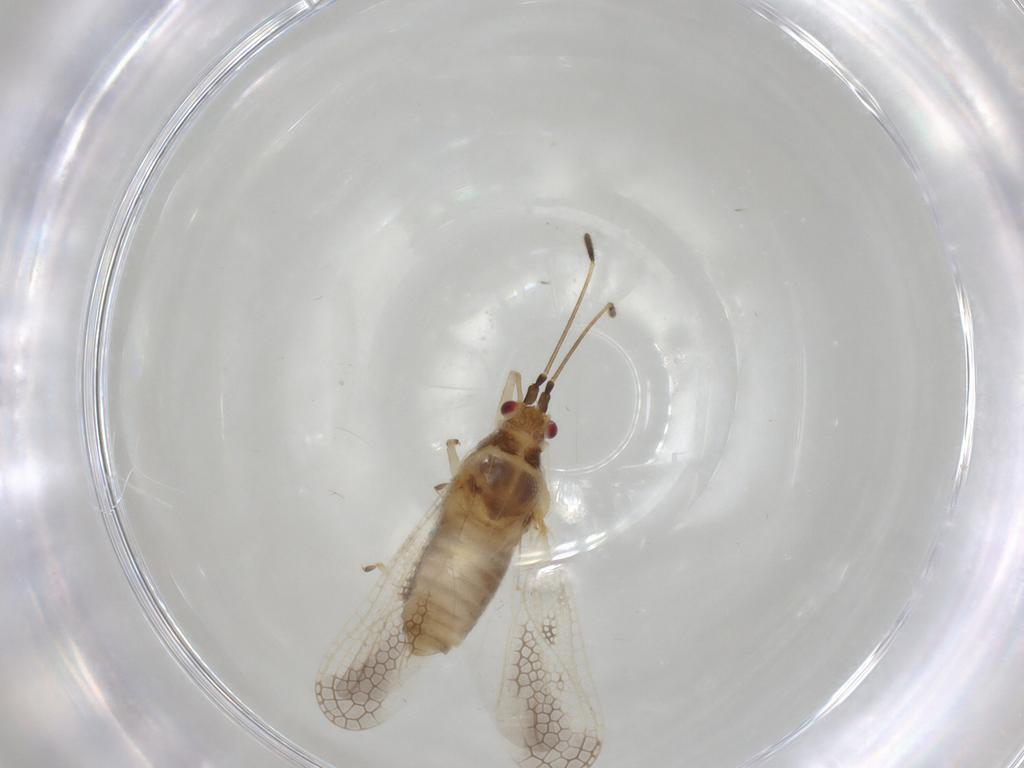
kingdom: Animalia
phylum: Arthropoda
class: Insecta
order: Hemiptera
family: Tingidae
